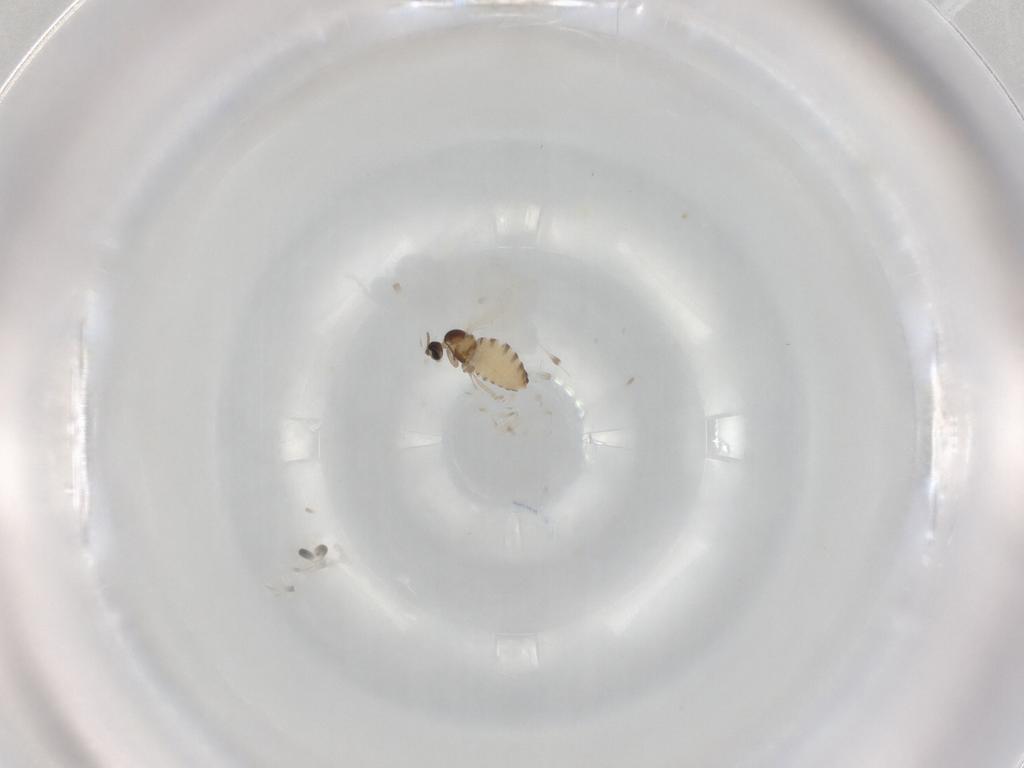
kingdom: Animalia
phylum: Arthropoda
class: Insecta
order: Diptera
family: Cecidomyiidae
